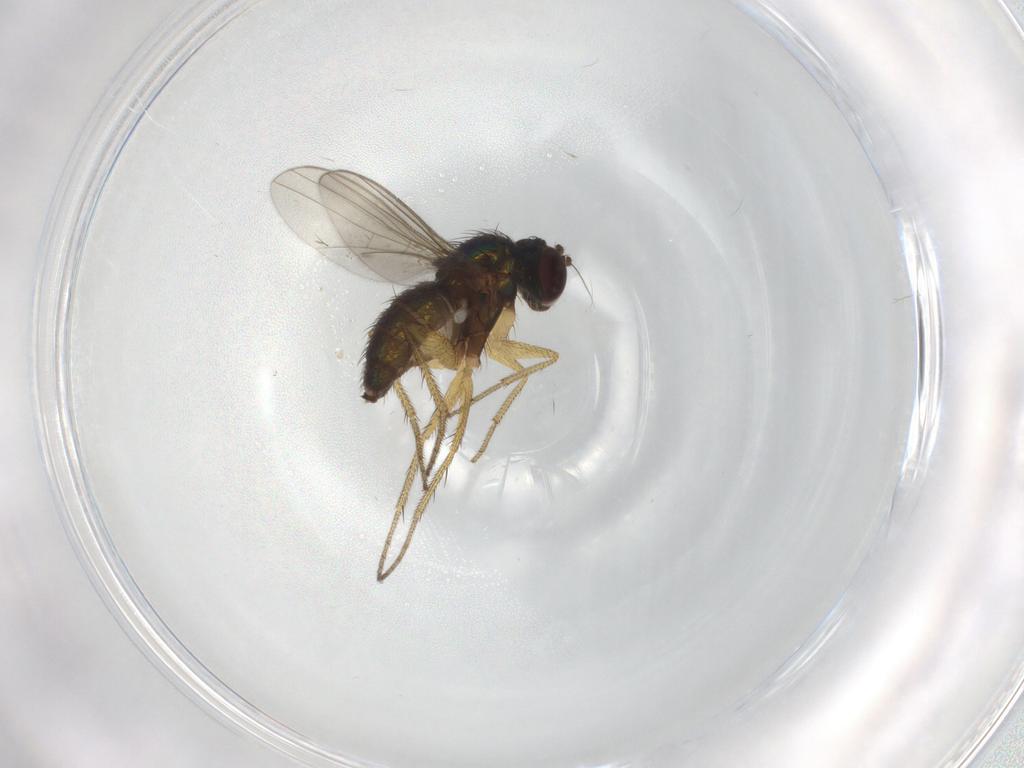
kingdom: Animalia
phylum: Arthropoda
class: Insecta
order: Diptera
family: Dolichopodidae
